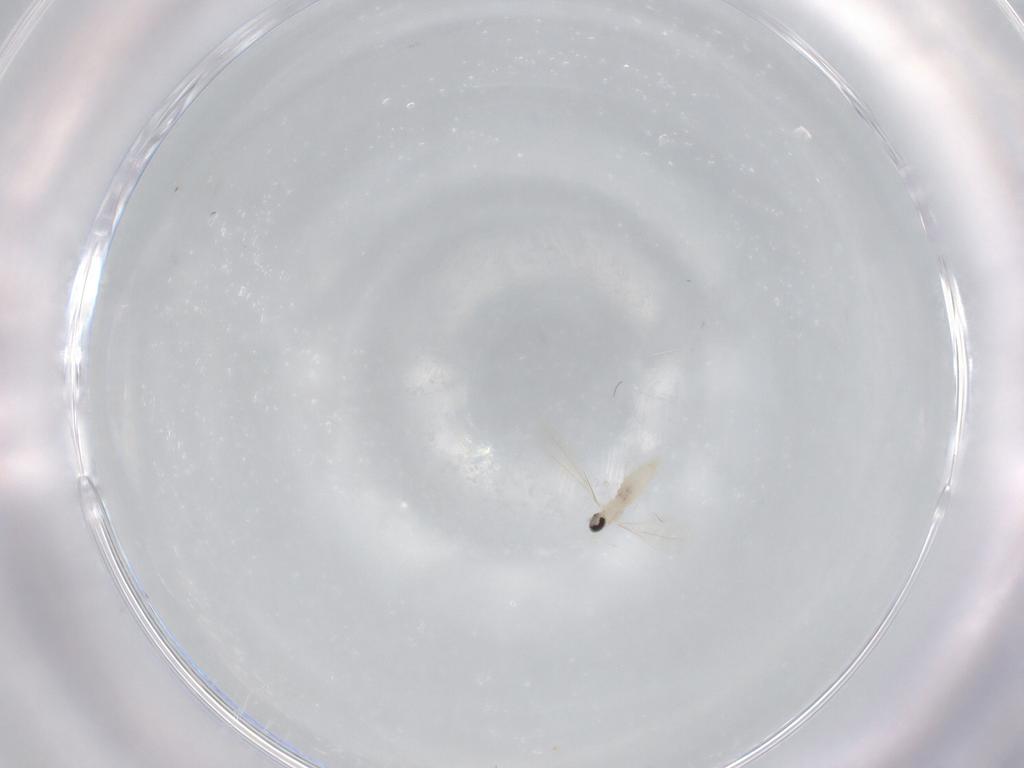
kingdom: Animalia
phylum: Arthropoda
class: Insecta
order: Diptera
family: Cecidomyiidae
